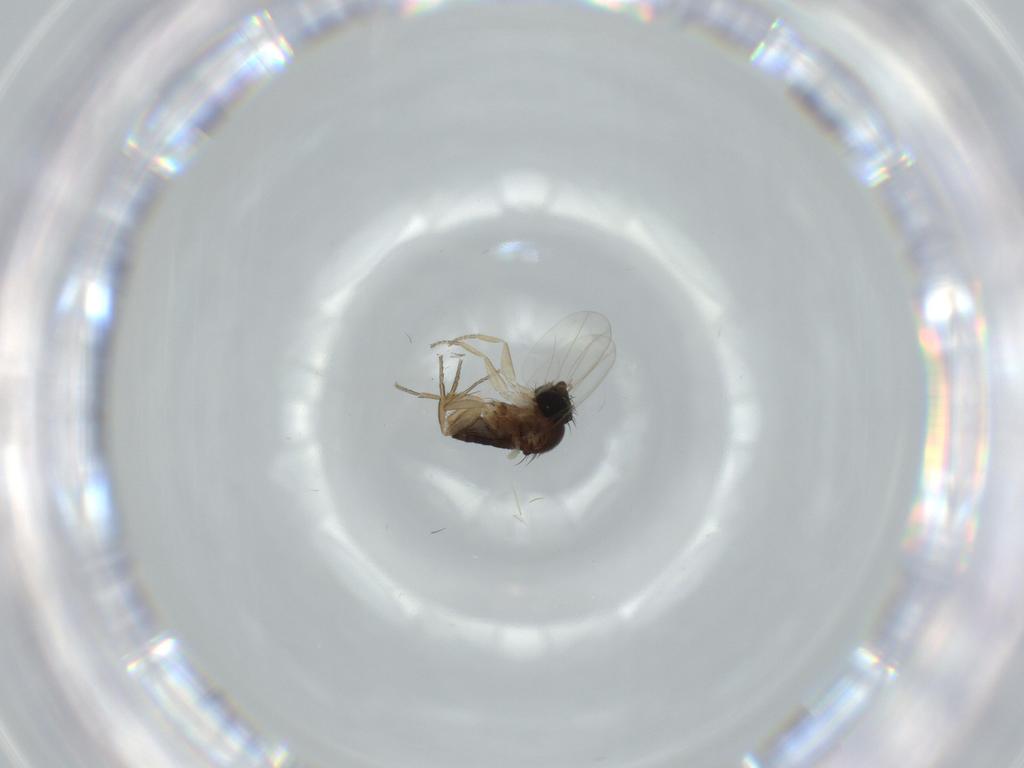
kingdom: Animalia
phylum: Arthropoda
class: Insecta
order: Diptera
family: Phoridae
